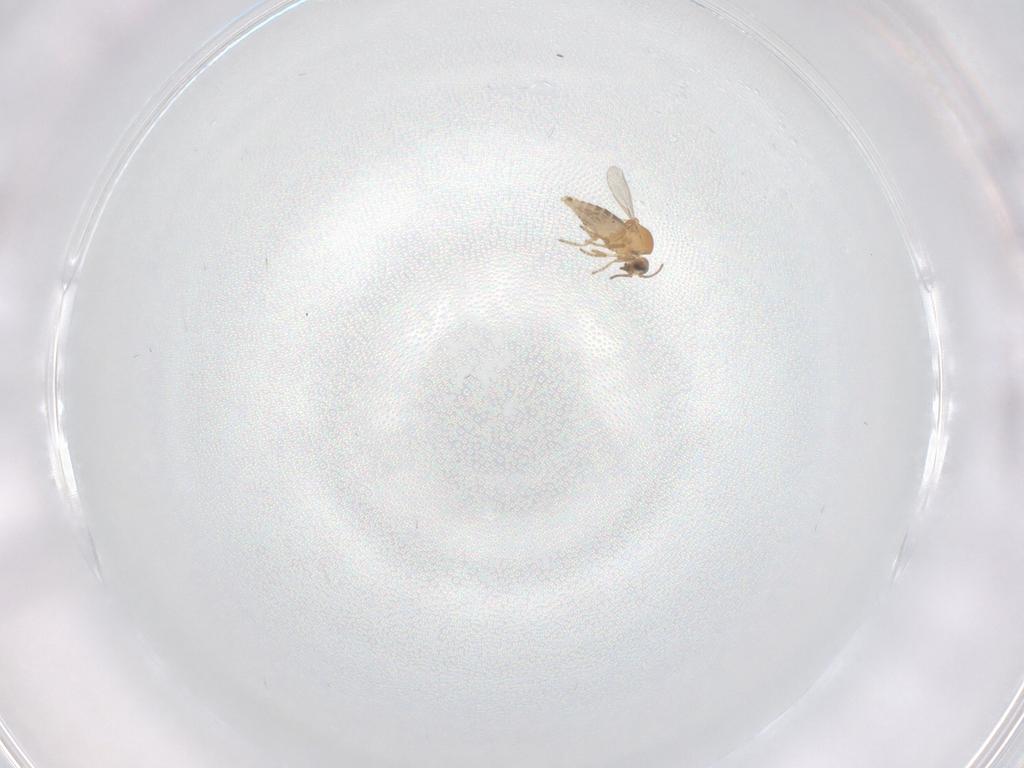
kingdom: Animalia
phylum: Arthropoda
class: Insecta
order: Diptera
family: Ceratopogonidae
